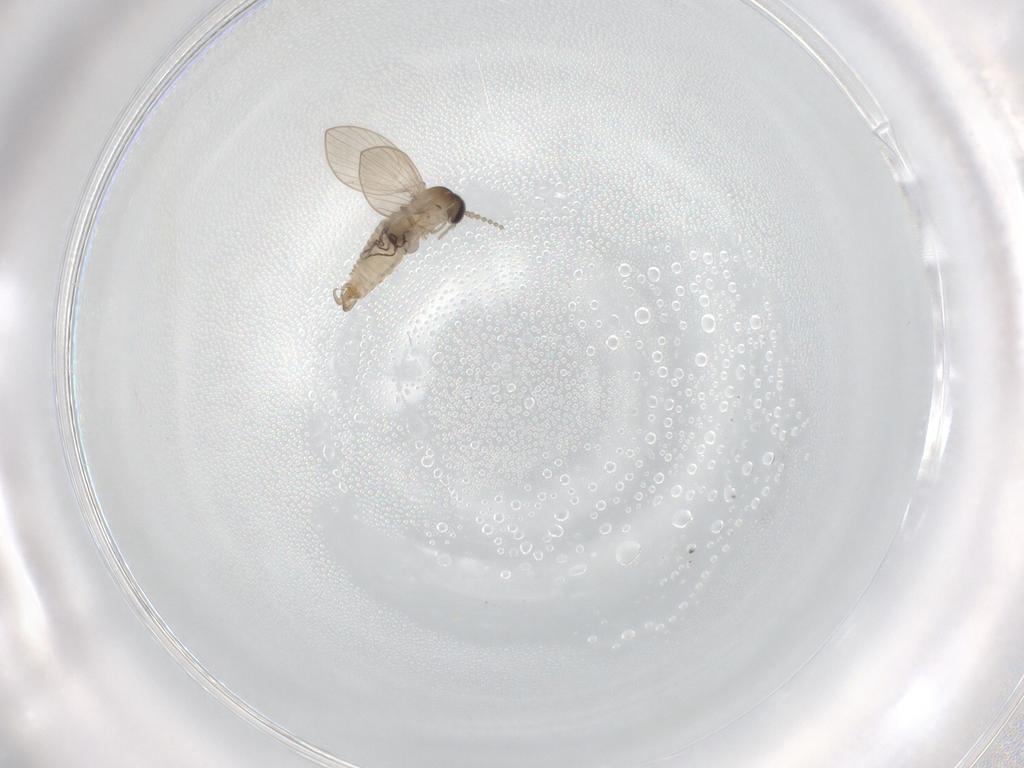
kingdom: Animalia
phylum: Arthropoda
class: Insecta
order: Diptera
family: Psychodidae
